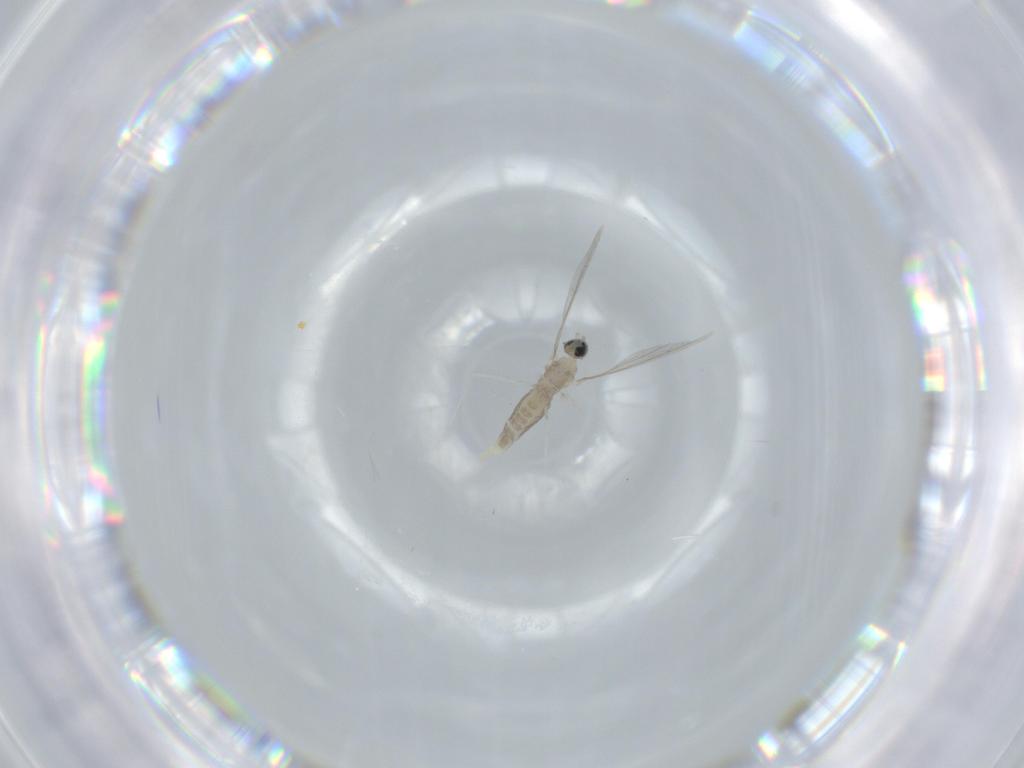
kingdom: Animalia
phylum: Arthropoda
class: Insecta
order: Diptera
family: Cecidomyiidae
